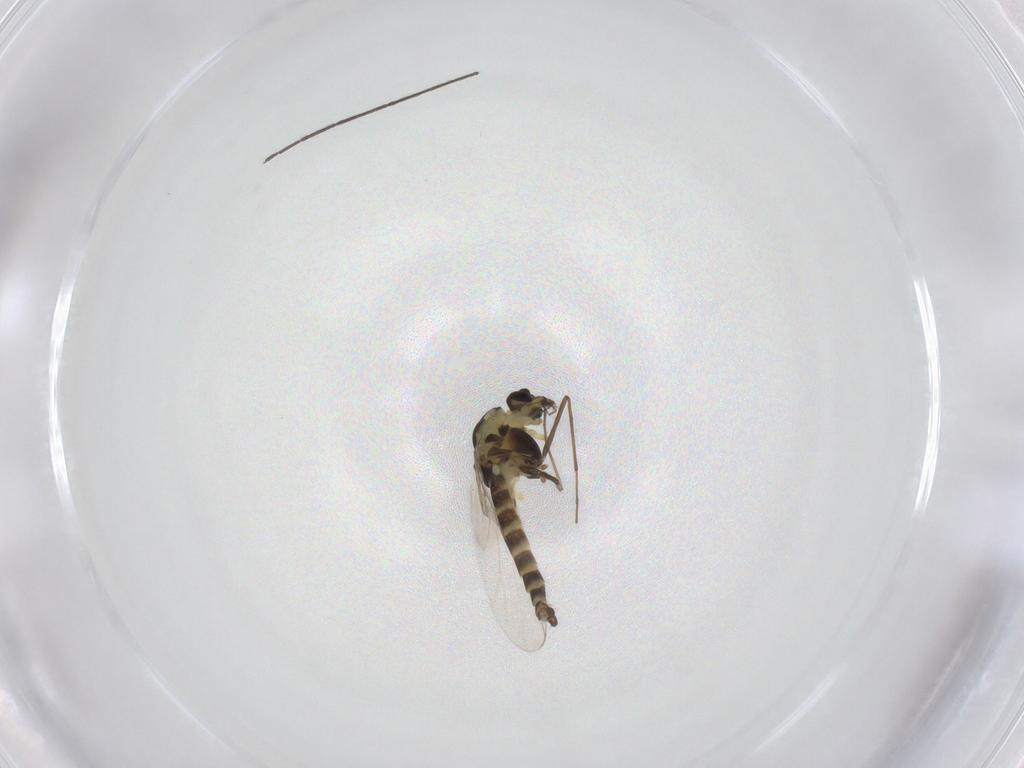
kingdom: Animalia
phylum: Arthropoda
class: Insecta
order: Diptera
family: Chironomidae
